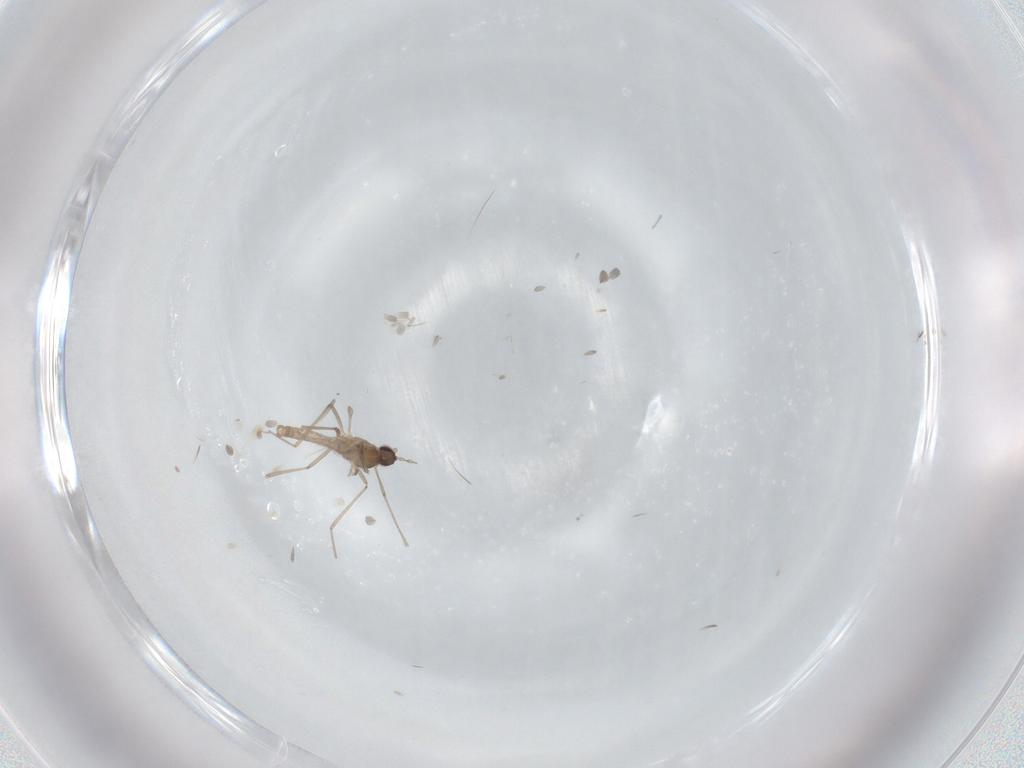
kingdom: Animalia
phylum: Arthropoda
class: Insecta
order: Diptera
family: Cecidomyiidae
